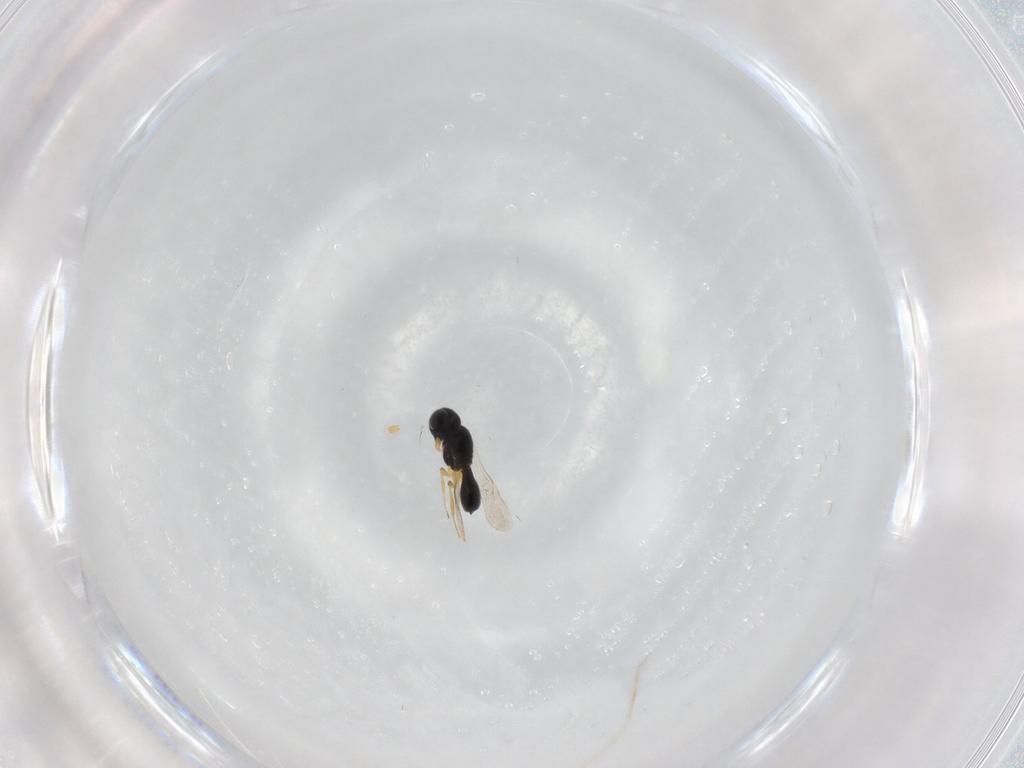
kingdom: Animalia
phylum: Arthropoda
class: Insecta
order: Hymenoptera
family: Scelionidae
